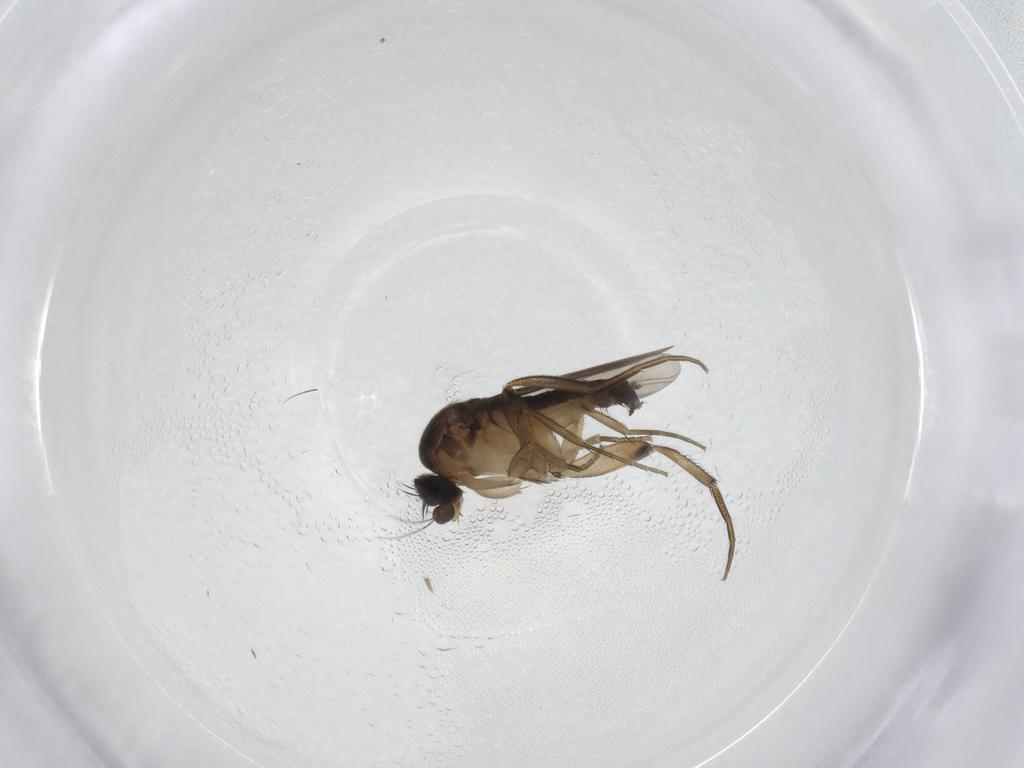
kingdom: Animalia
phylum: Arthropoda
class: Insecta
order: Diptera
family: Phoridae
